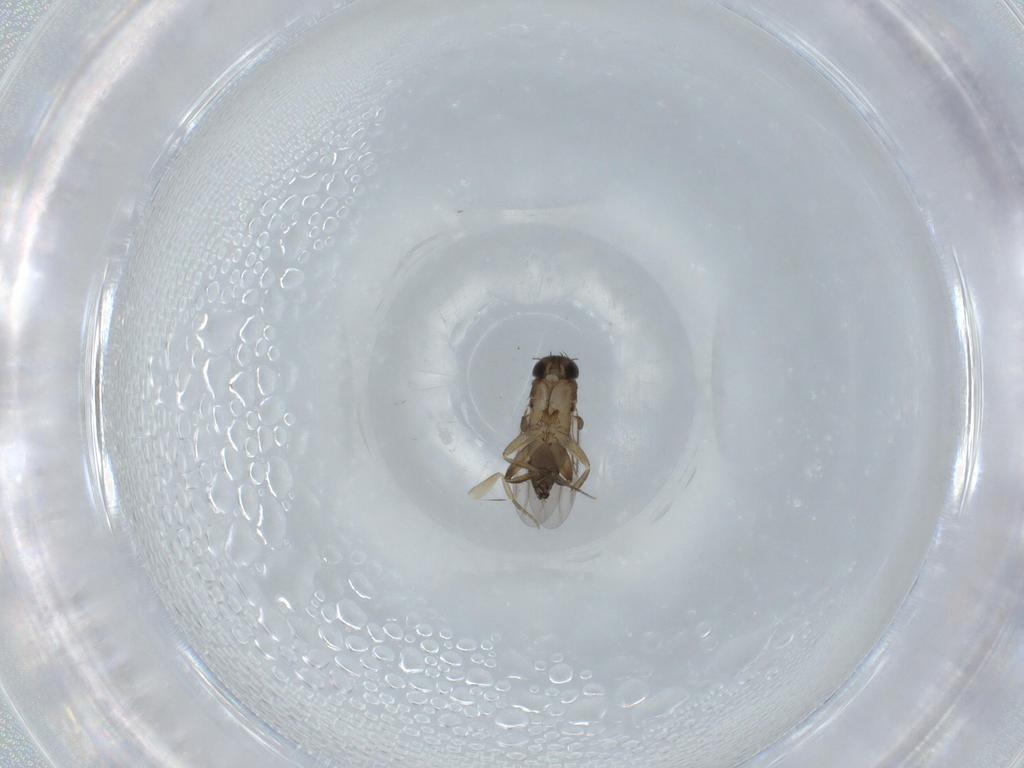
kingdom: Animalia
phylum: Arthropoda
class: Insecta
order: Diptera
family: Phoridae
